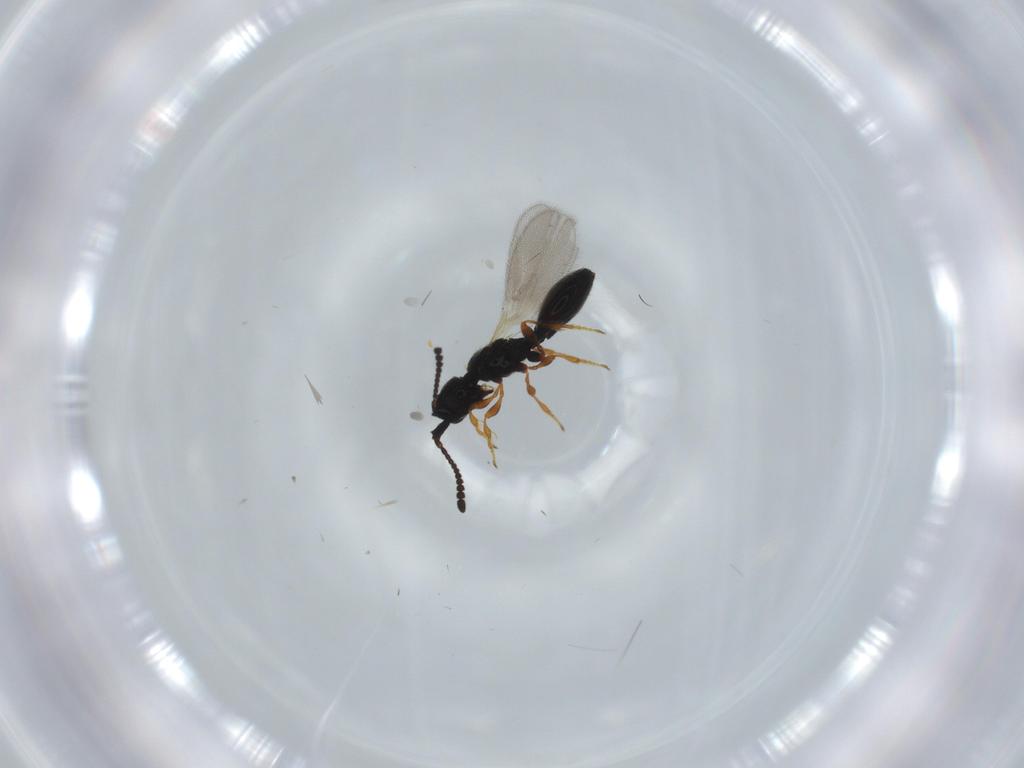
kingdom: Animalia
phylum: Arthropoda
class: Insecta
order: Hymenoptera
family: Diapriidae
